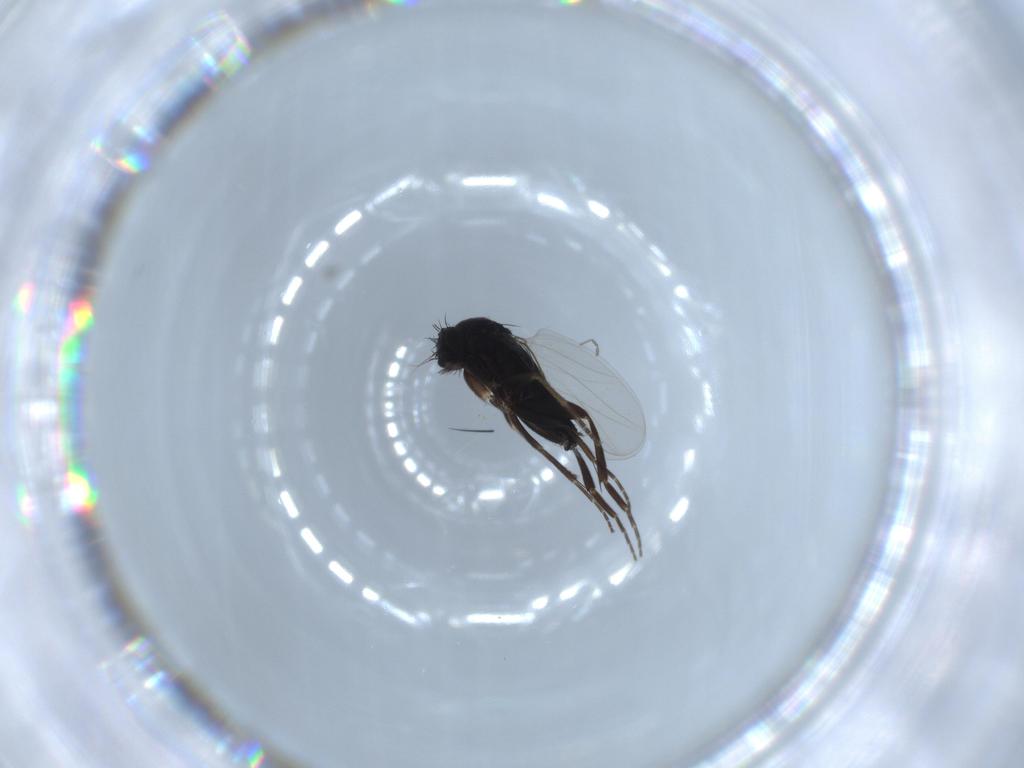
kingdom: Animalia
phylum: Arthropoda
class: Insecta
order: Diptera
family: Phoridae
